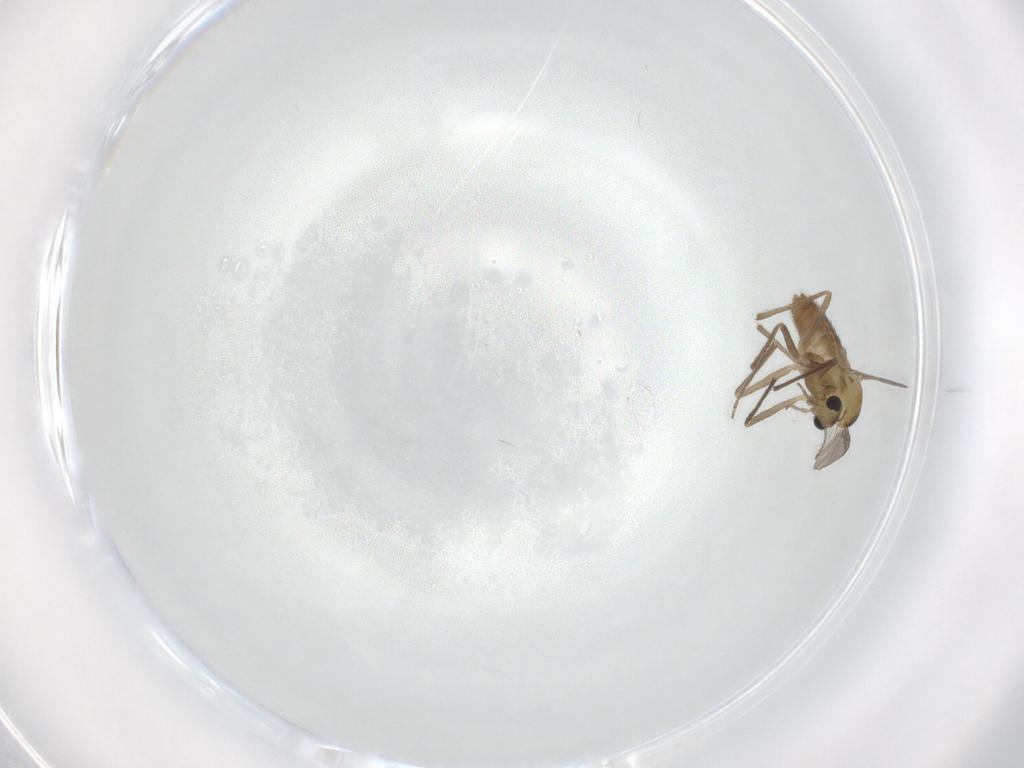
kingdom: Animalia
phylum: Arthropoda
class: Insecta
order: Diptera
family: Chironomidae
